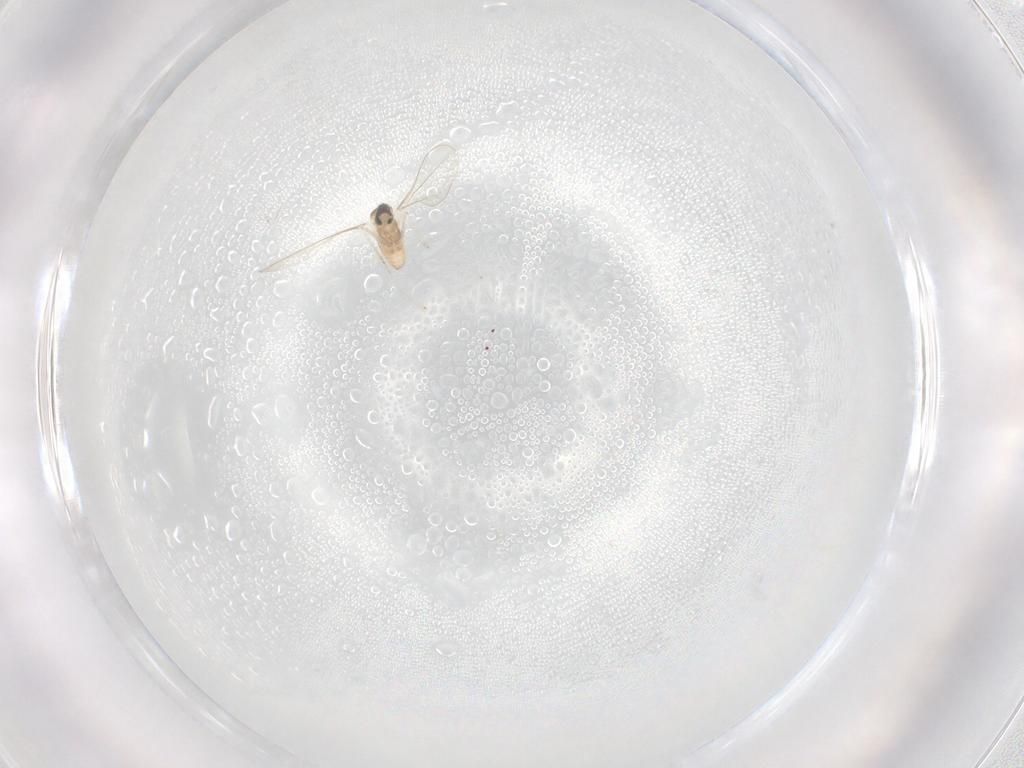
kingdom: Animalia
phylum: Arthropoda
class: Insecta
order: Diptera
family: Cecidomyiidae
